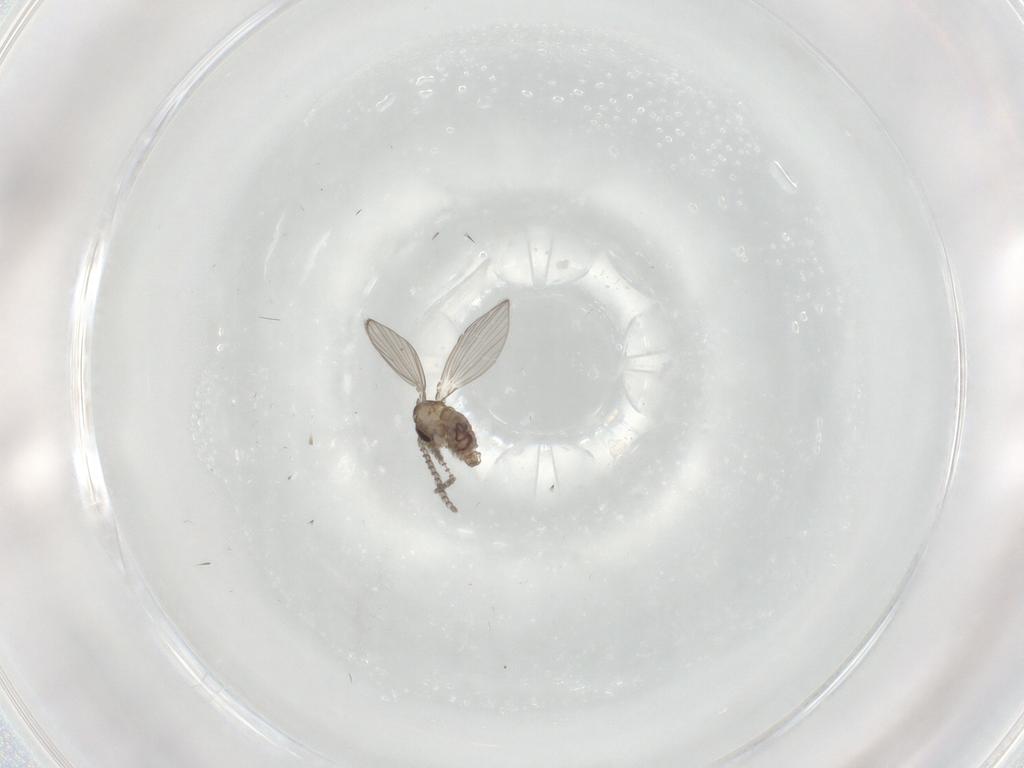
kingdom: Animalia
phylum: Arthropoda
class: Insecta
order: Diptera
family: Psychodidae
